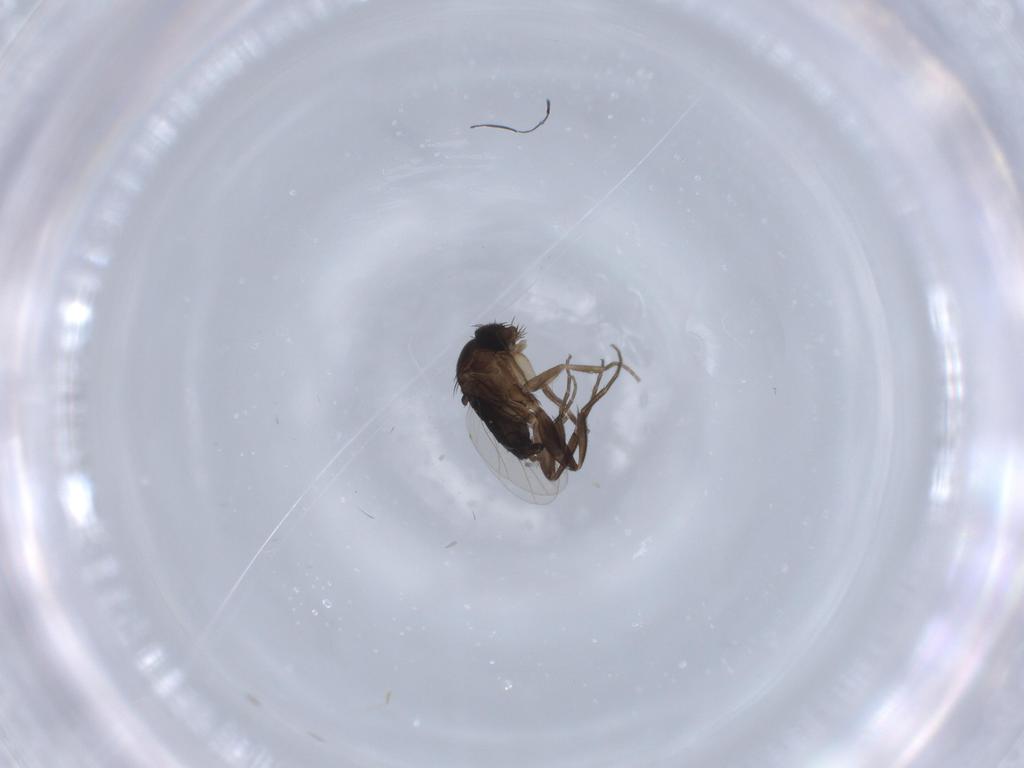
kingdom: Animalia
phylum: Arthropoda
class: Insecta
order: Diptera
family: Phoridae
